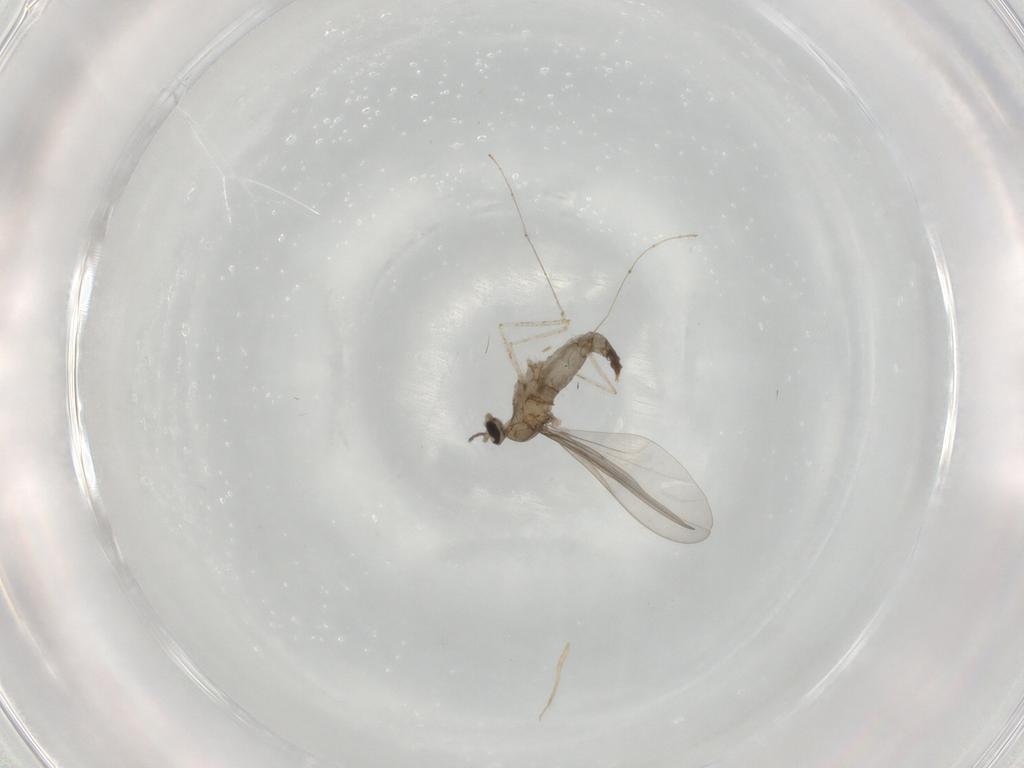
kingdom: Animalia
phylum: Arthropoda
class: Insecta
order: Diptera
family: Cecidomyiidae
